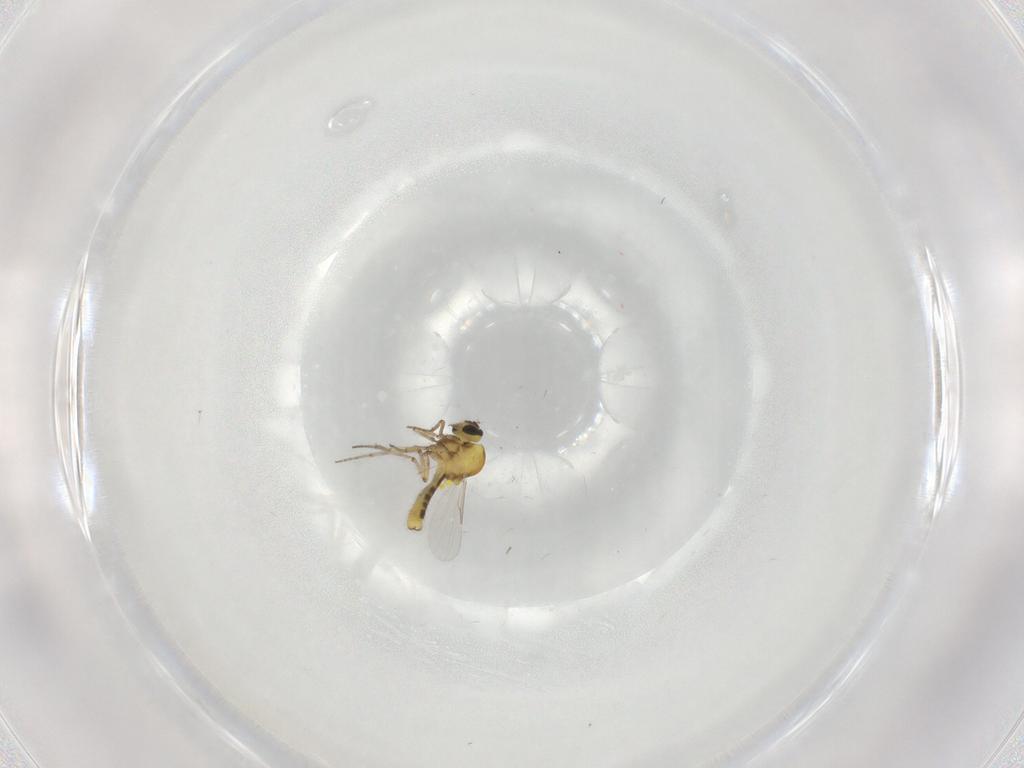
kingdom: Animalia
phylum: Arthropoda
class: Insecta
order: Diptera
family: Ceratopogonidae
